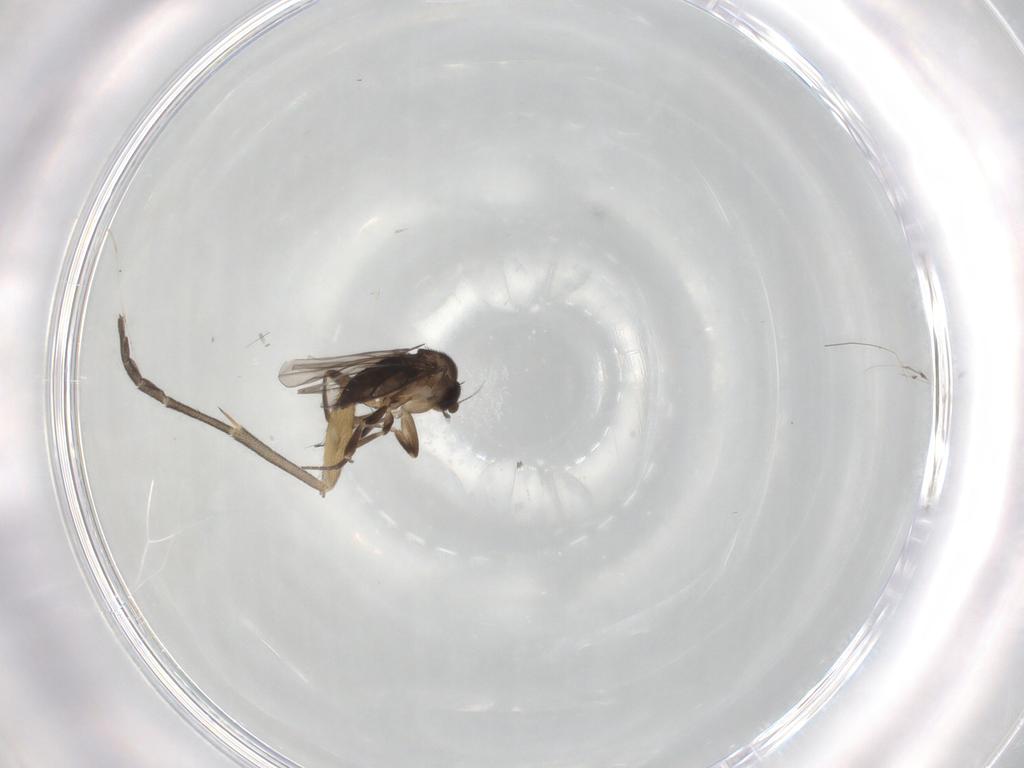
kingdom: Animalia
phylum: Arthropoda
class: Insecta
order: Diptera
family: Mycetophilidae
